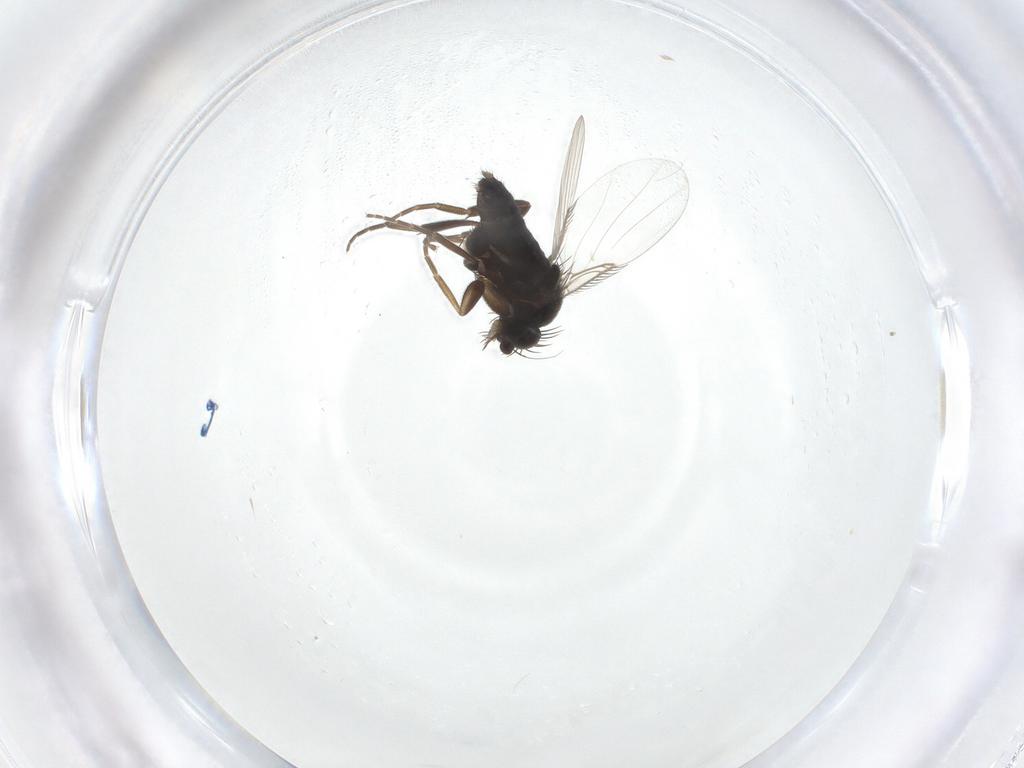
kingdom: Animalia
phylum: Arthropoda
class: Insecta
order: Diptera
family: Phoridae
